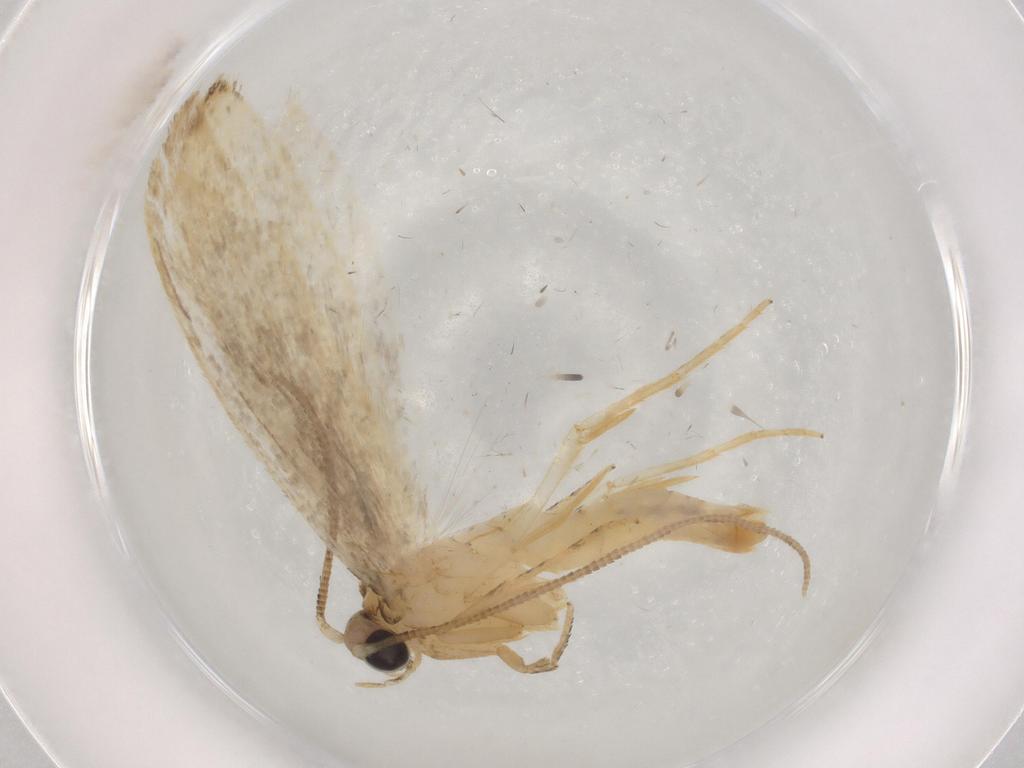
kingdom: Animalia
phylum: Arthropoda
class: Insecta
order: Lepidoptera
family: Tineidae
